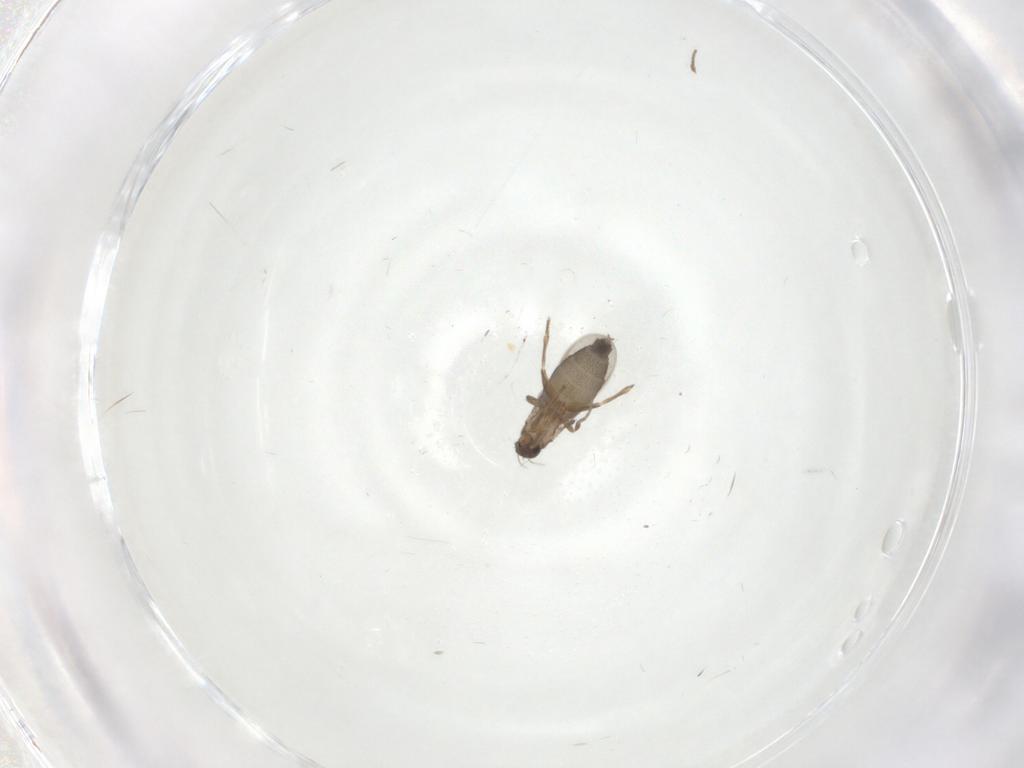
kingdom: Animalia
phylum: Arthropoda
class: Insecta
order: Diptera
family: Phoridae
